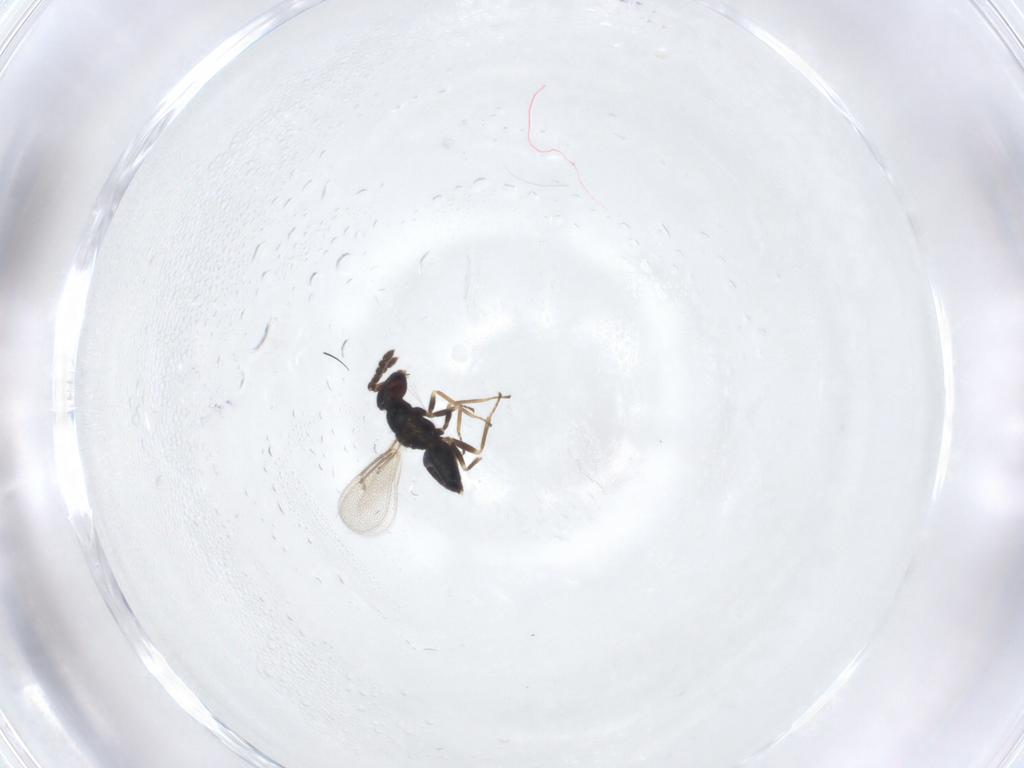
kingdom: Animalia
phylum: Arthropoda
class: Insecta
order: Hymenoptera
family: Eulophidae
